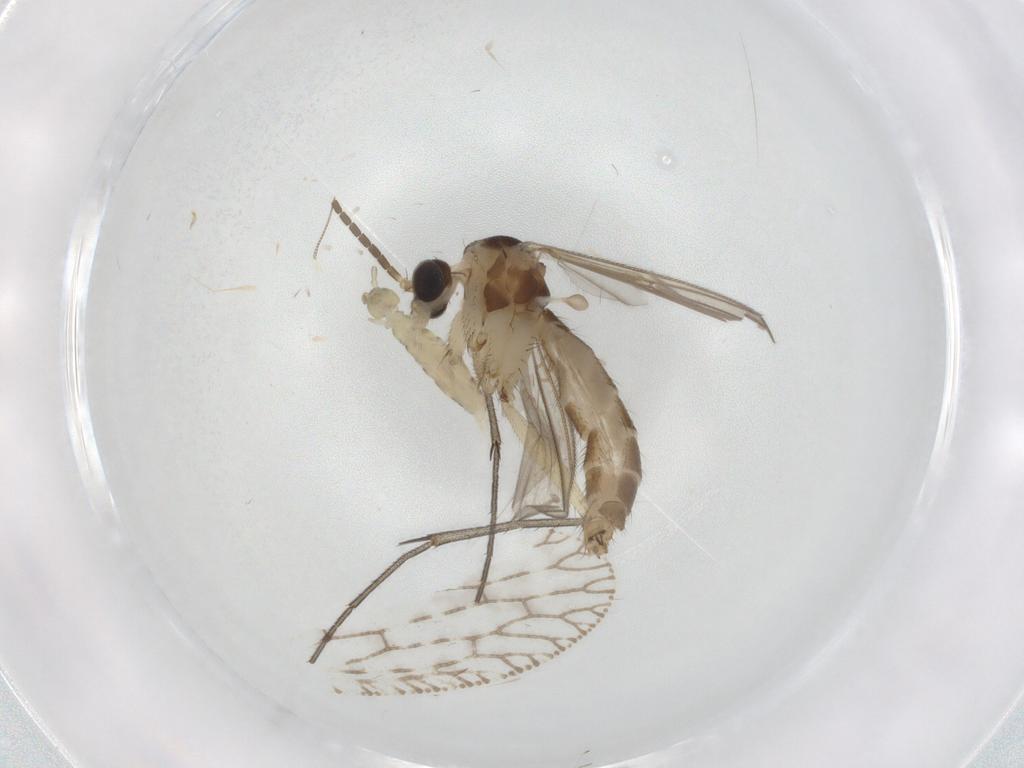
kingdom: Animalia
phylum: Arthropoda
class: Insecta
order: Diptera
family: Mycetophilidae
